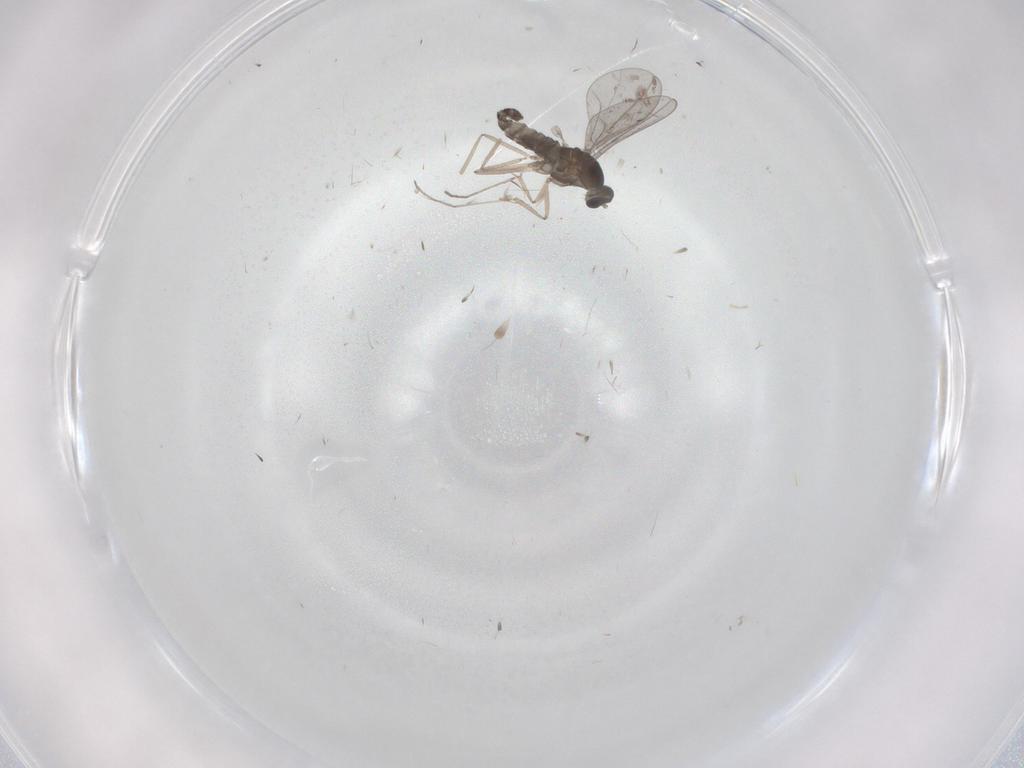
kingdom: Animalia
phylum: Arthropoda
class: Insecta
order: Diptera
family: Cecidomyiidae
